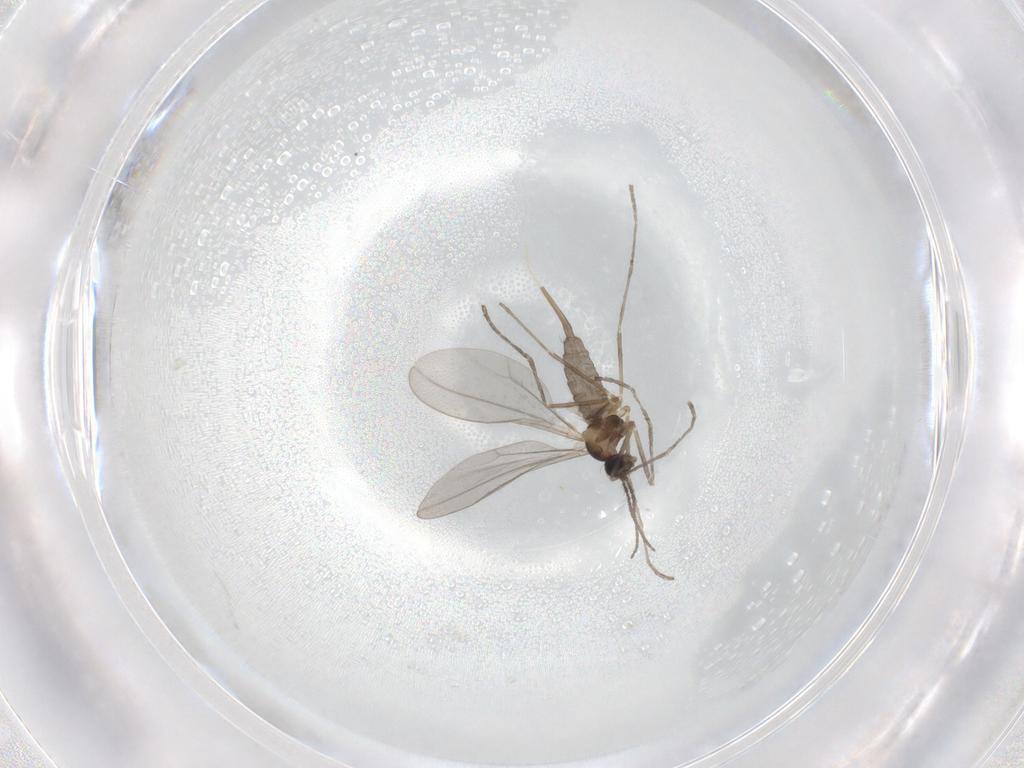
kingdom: Animalia
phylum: Arthropoda
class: Insecta
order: Diptera
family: Cecidomyiidae
